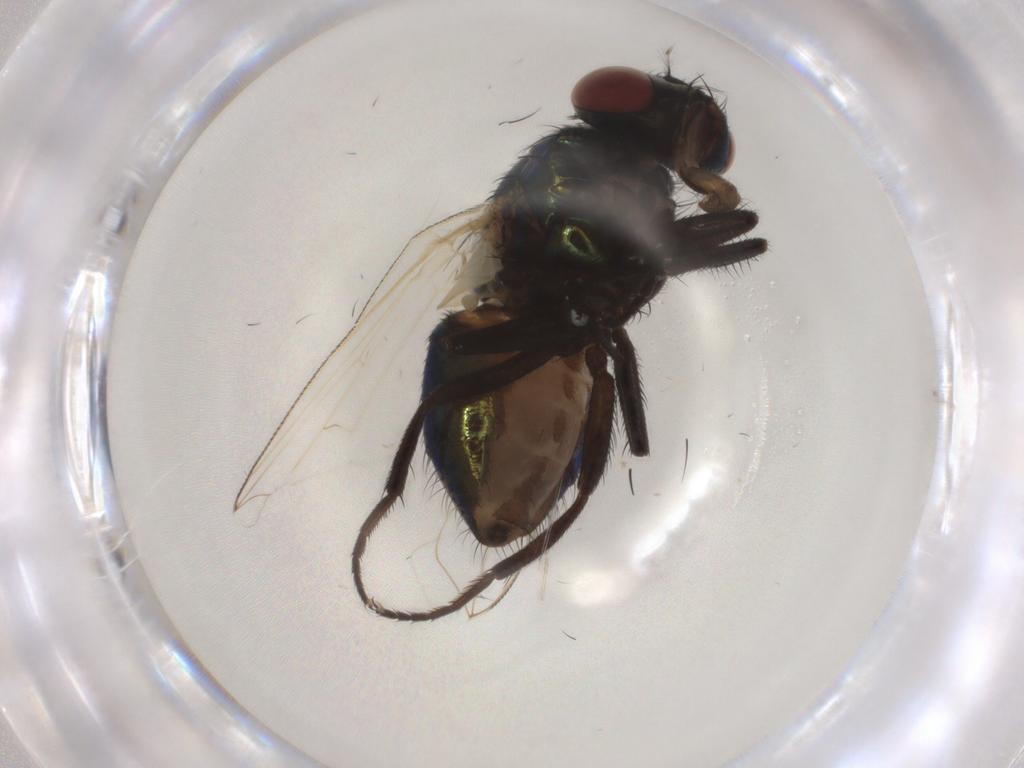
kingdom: Animalia
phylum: Arthropoda
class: Insecta
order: Diptera
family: Muscidae
